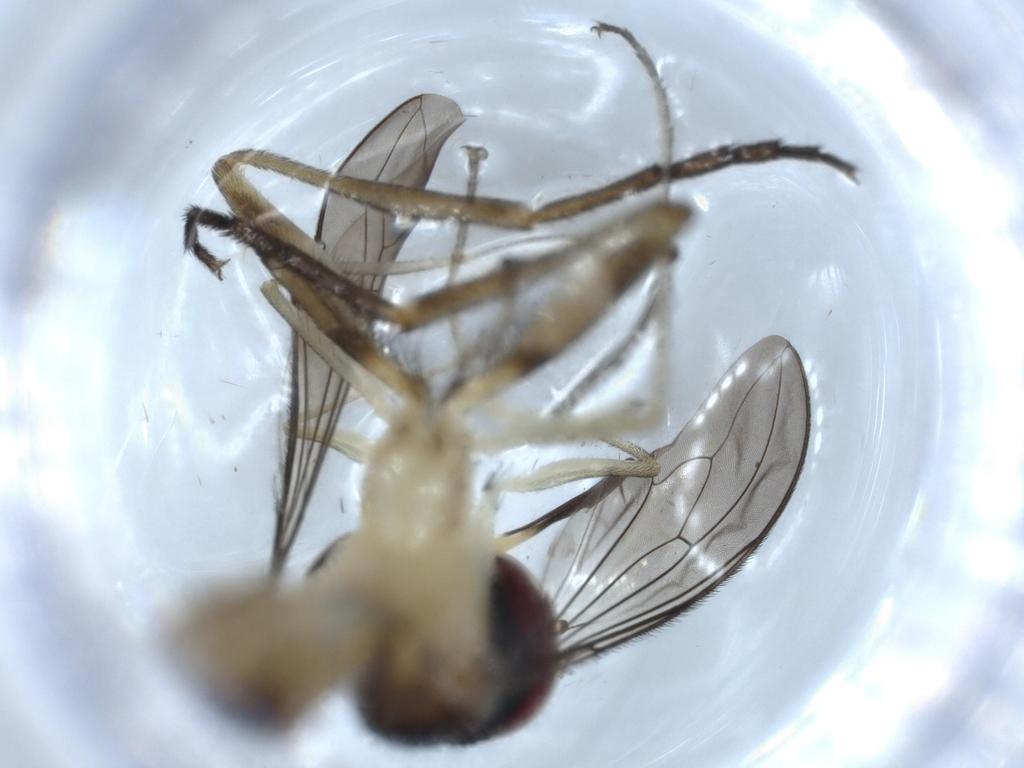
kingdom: Animalia
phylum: Arthropoda
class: Insecta
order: Diptera
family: Conopidae
